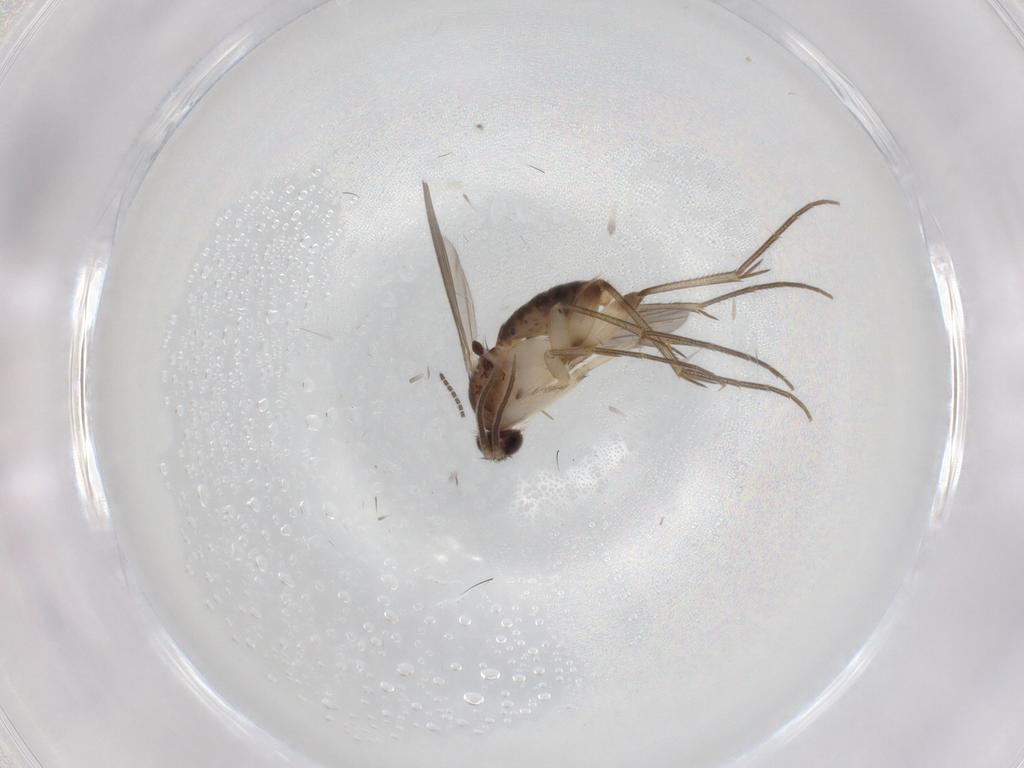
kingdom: Animalia
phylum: Arthropoda
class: Insecta
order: Diptera
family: Mycetophilidae
